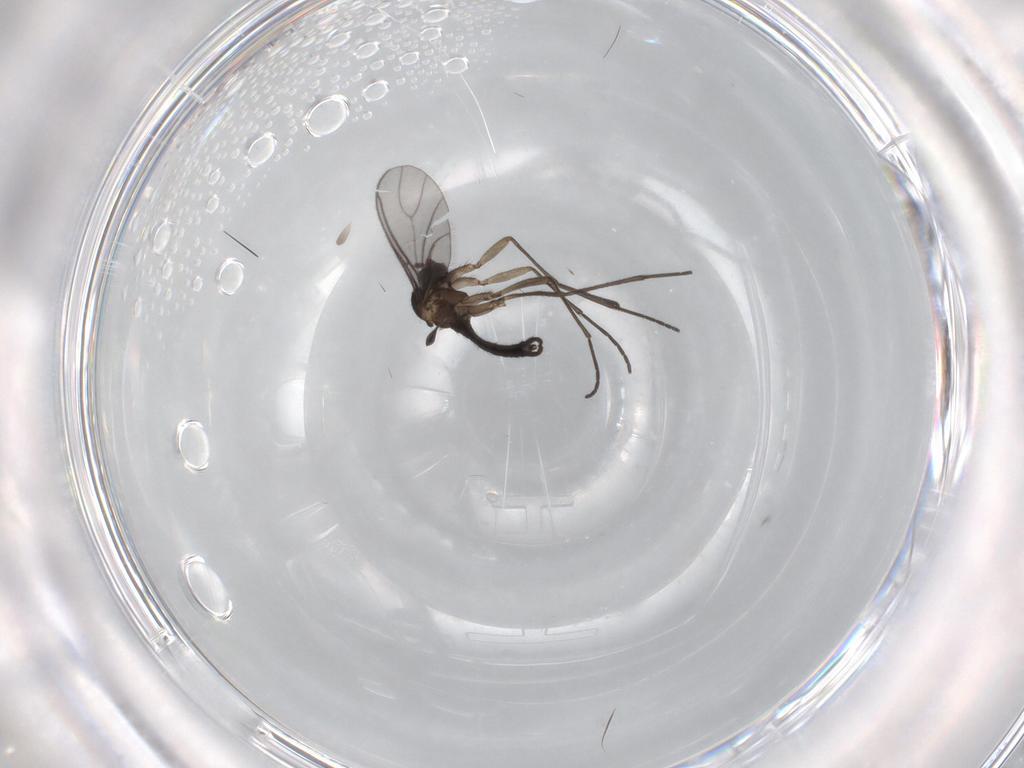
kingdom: Animalia
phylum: Arthropoda
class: Insecta
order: Diptera
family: Sciaridae
